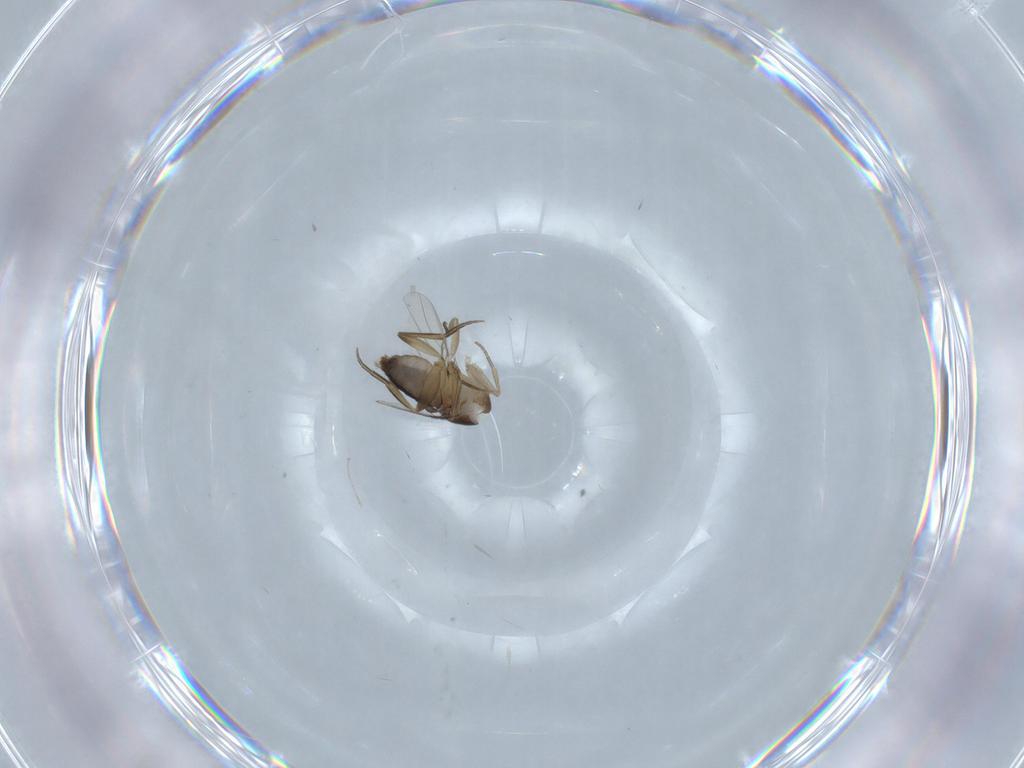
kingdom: Animalia
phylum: Arthropoda
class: Insecta
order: Diptera
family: Cecidomyiidae
